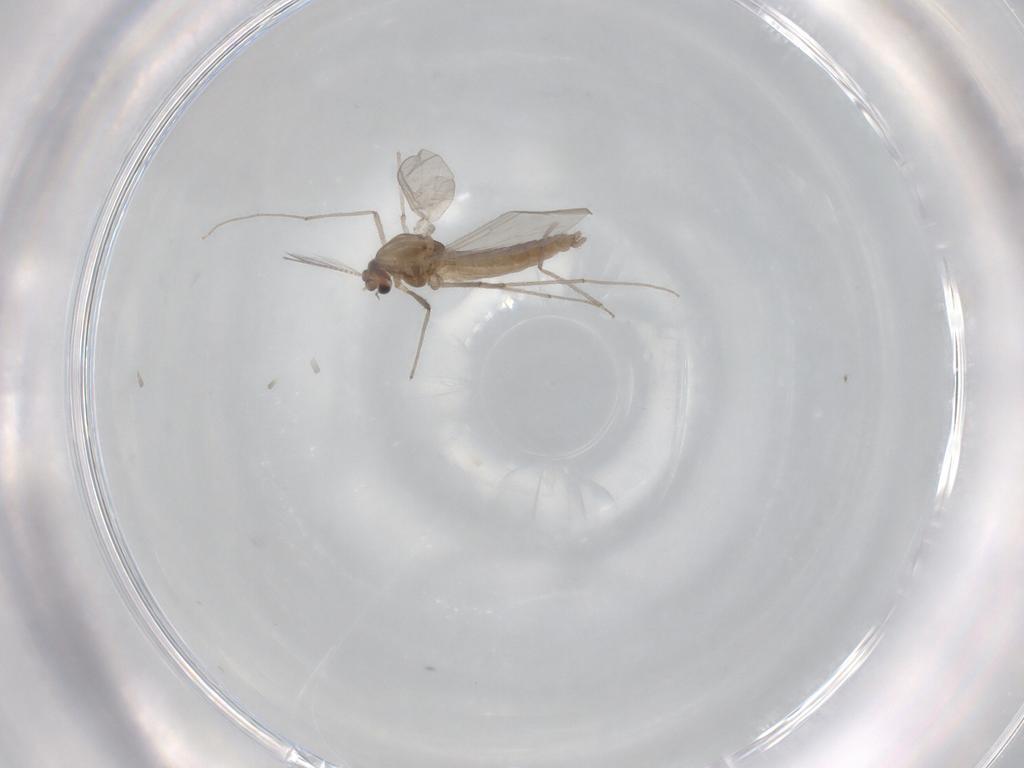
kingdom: Animalia
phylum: Arthropoda
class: Insecta
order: Diptera
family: Chironomidae
